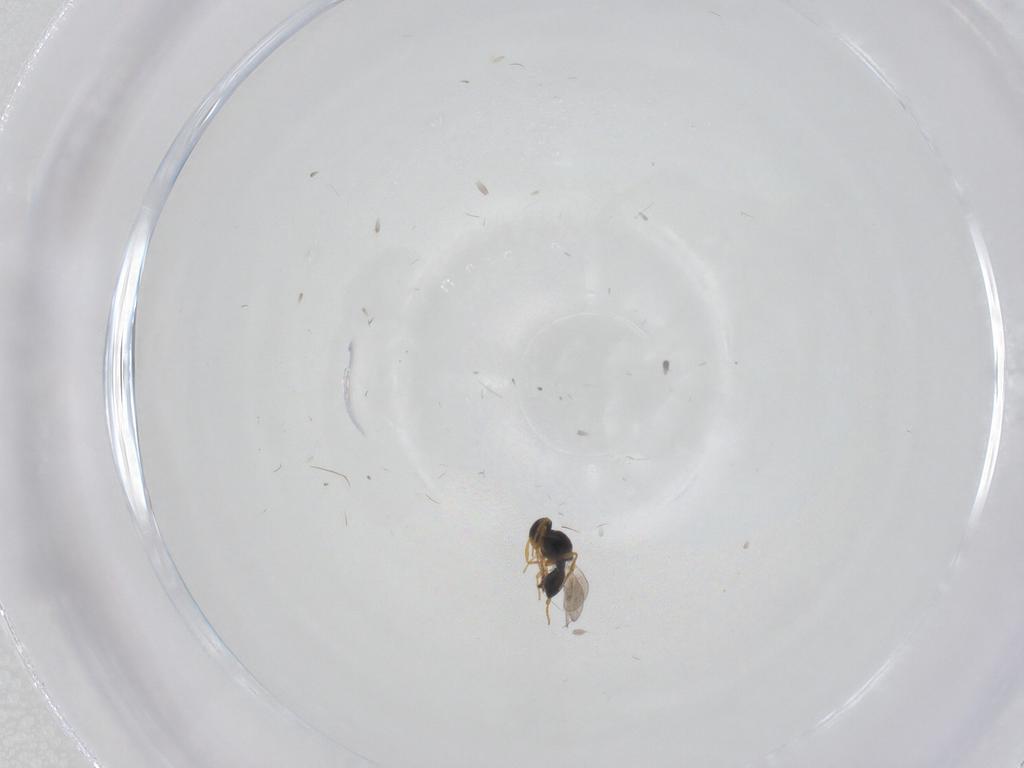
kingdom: Animalia
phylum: Arthropoda
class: Insecta
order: Hymenoptera
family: Platygastridae
